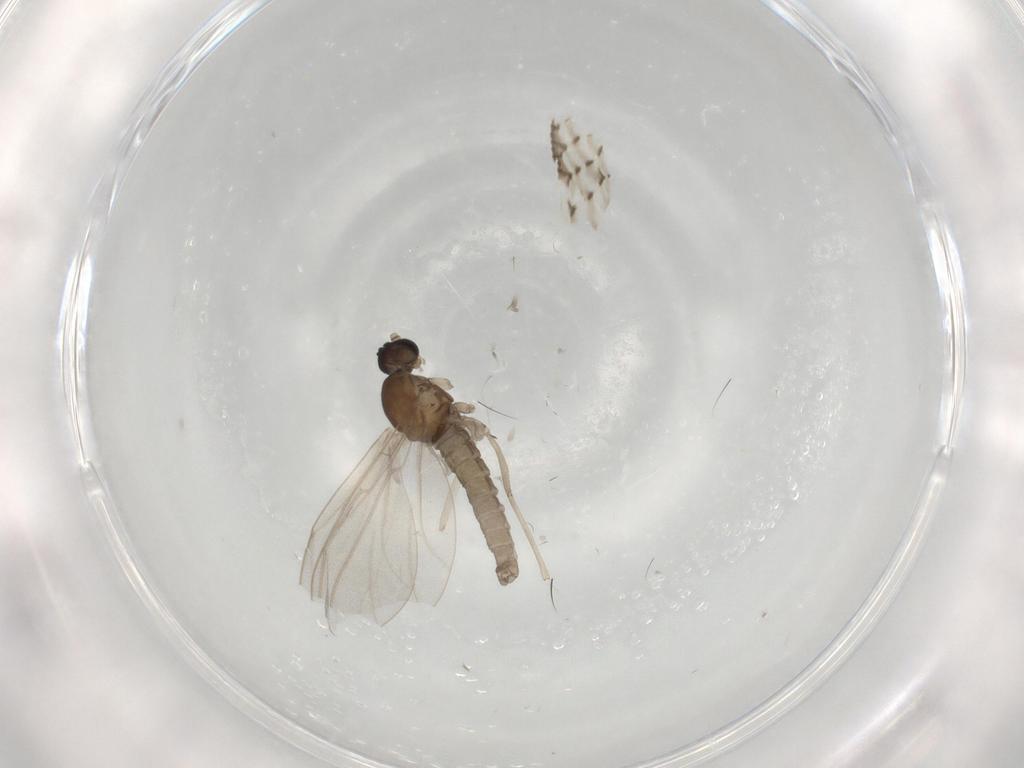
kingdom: Animalia
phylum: Arthropoda
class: Insecta
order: Diptera
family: Cecidomyiidae
